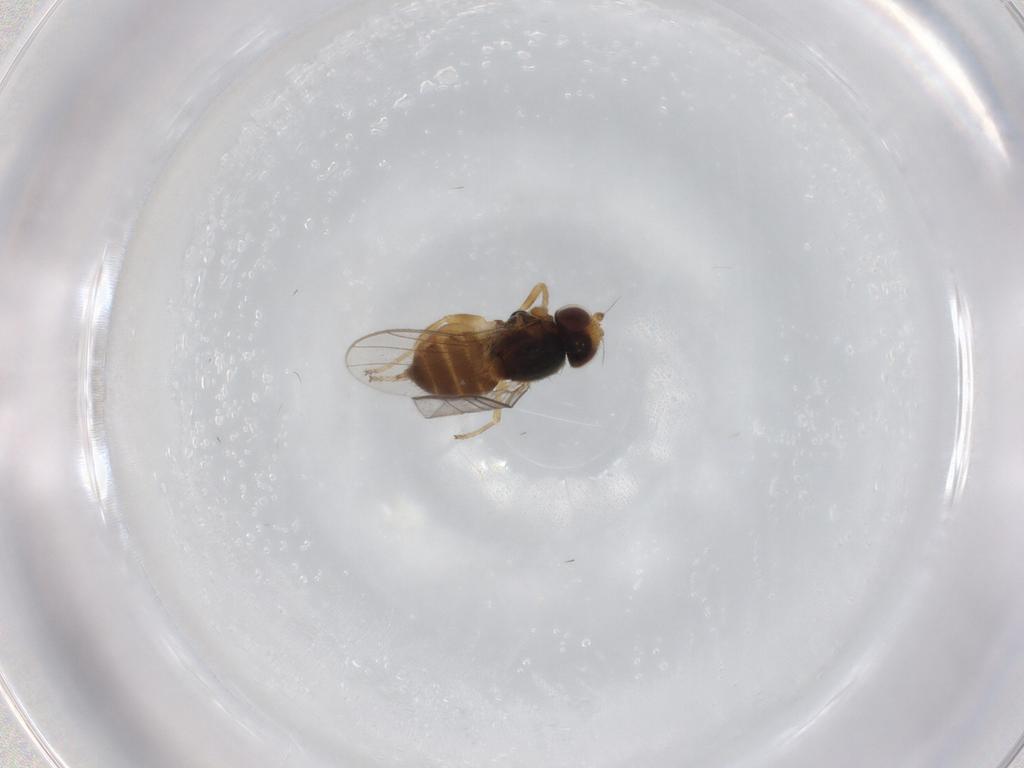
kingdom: Animalia
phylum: Arthropoda
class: Insecta
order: Diptera
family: Chloropidae
